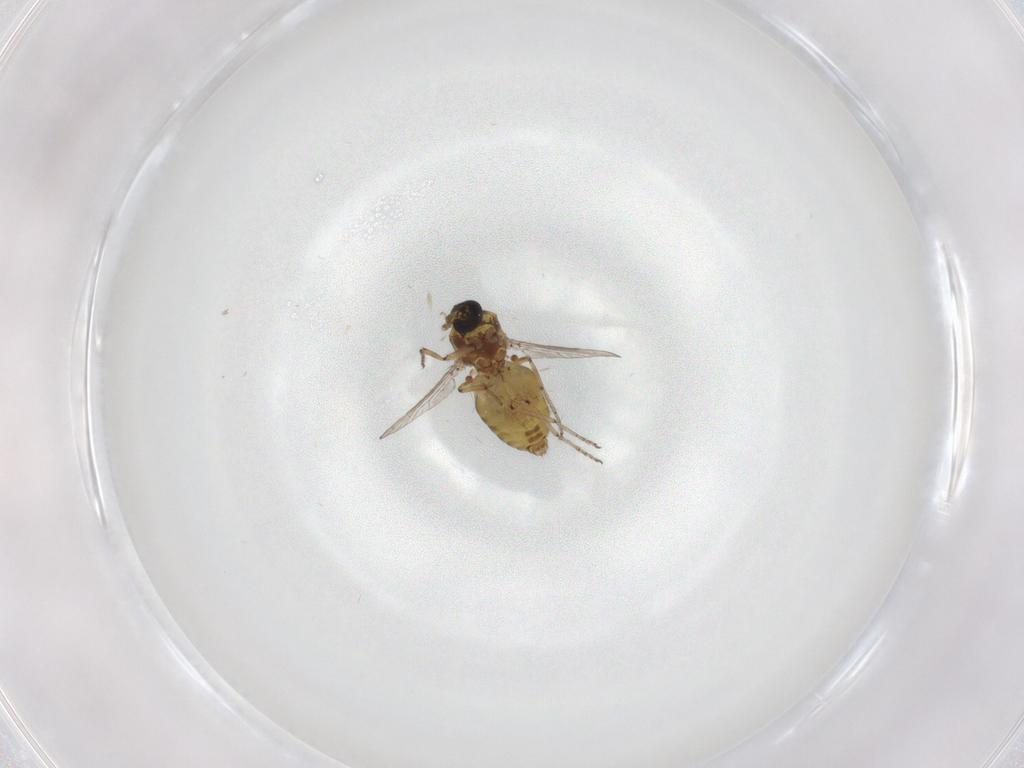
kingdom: Animalia
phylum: Arthropoda
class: Insecta
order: Diptera
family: Ceratopogonidae
